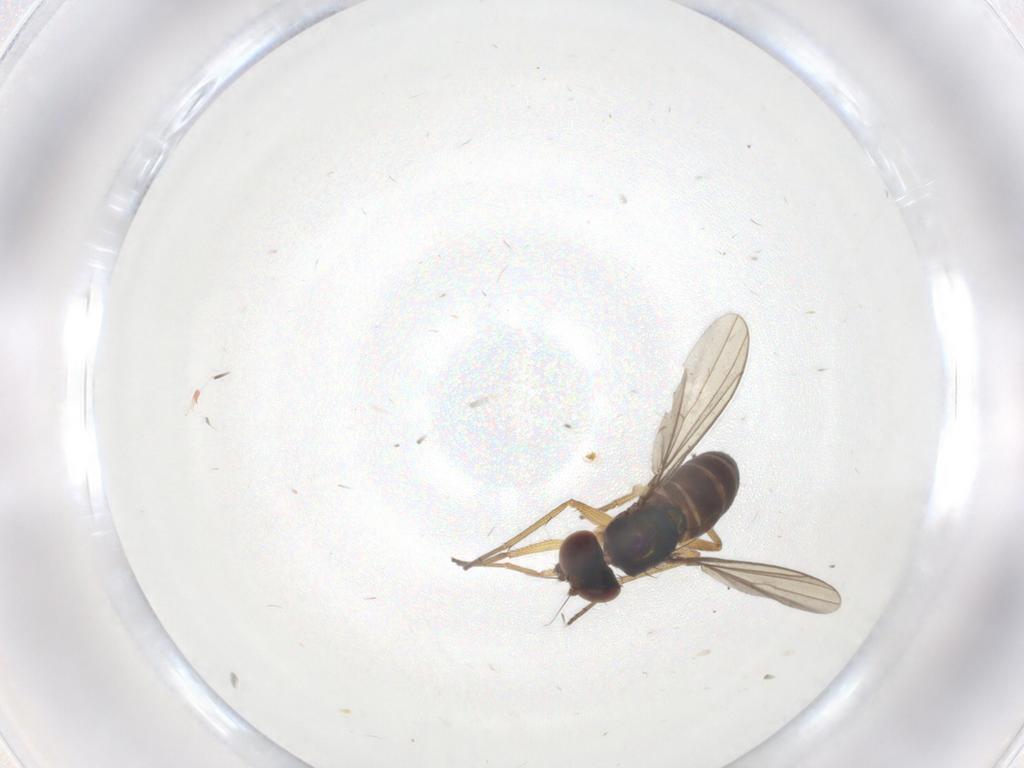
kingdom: Animalia
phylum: Arthropoda
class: Insecta
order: Diptera
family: Dolichopodidae
